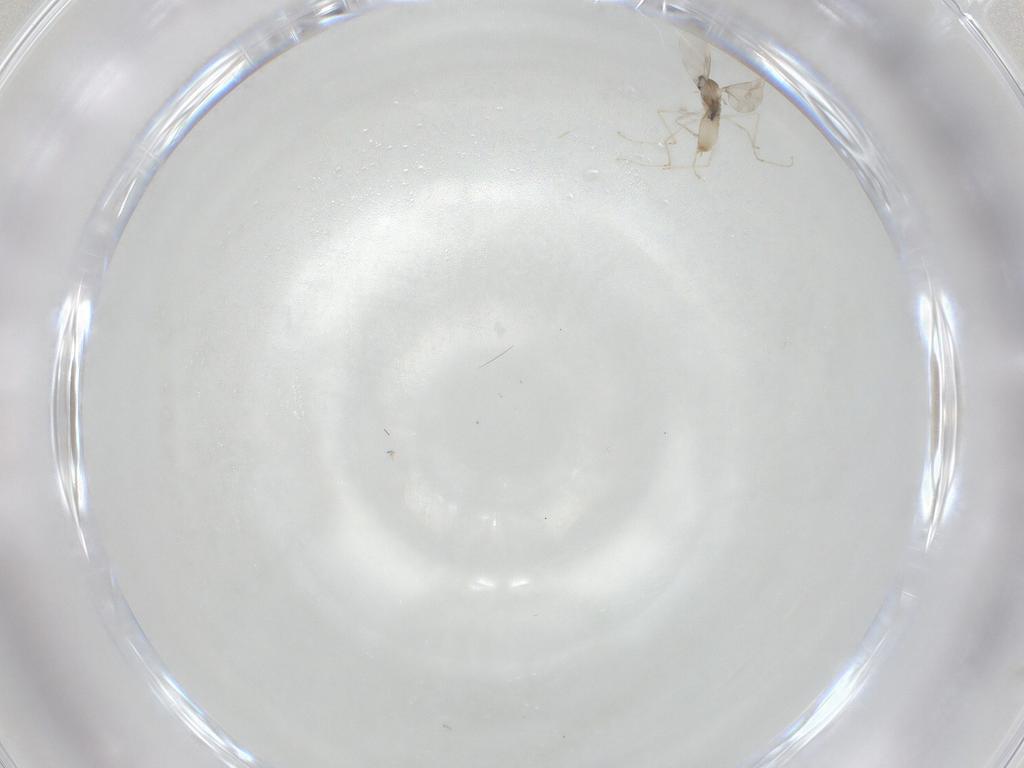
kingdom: Animalia
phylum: Arthropoda
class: Insecta
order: Diptera
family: Cecidomyiidae
